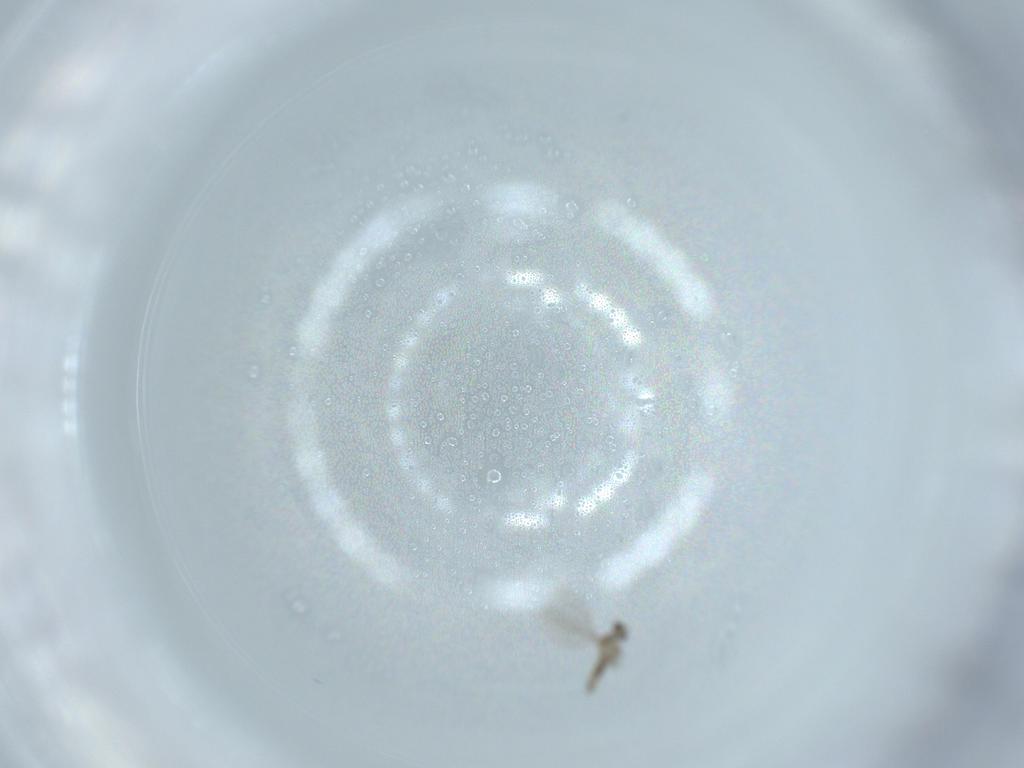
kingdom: Animalia
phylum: Arthropoda
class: Insecta
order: Diptera
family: Cecidomyiidae
